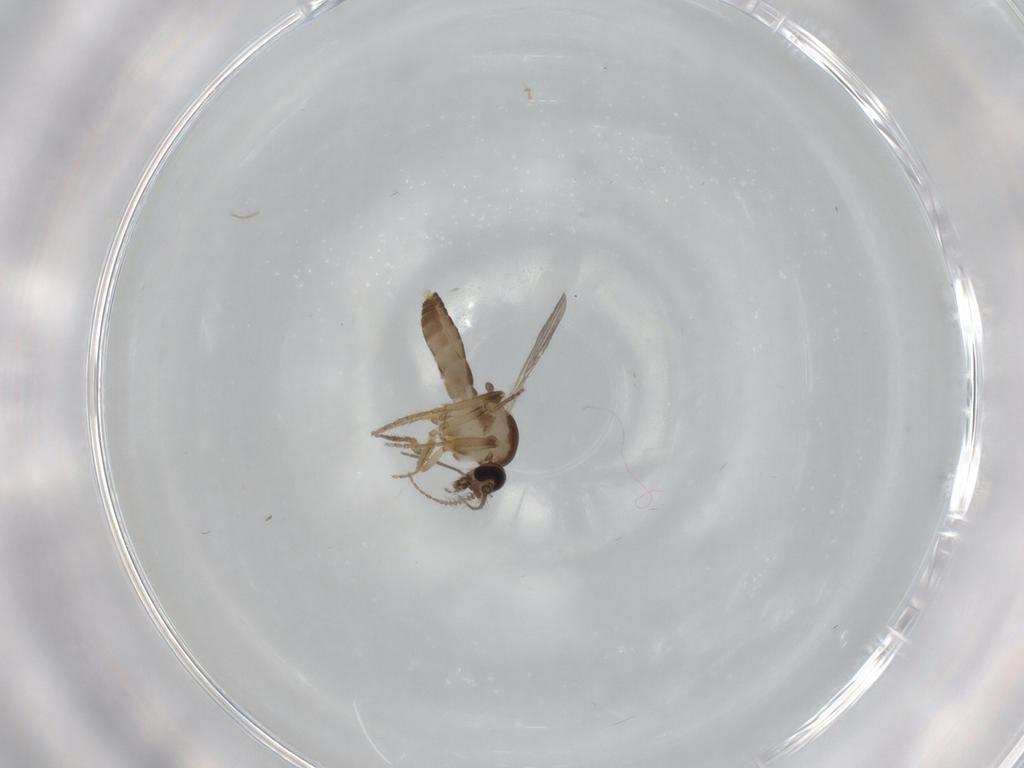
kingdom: Animalia
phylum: Arthropoda
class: Insecta
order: Diptera
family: Ceratopogonidae
